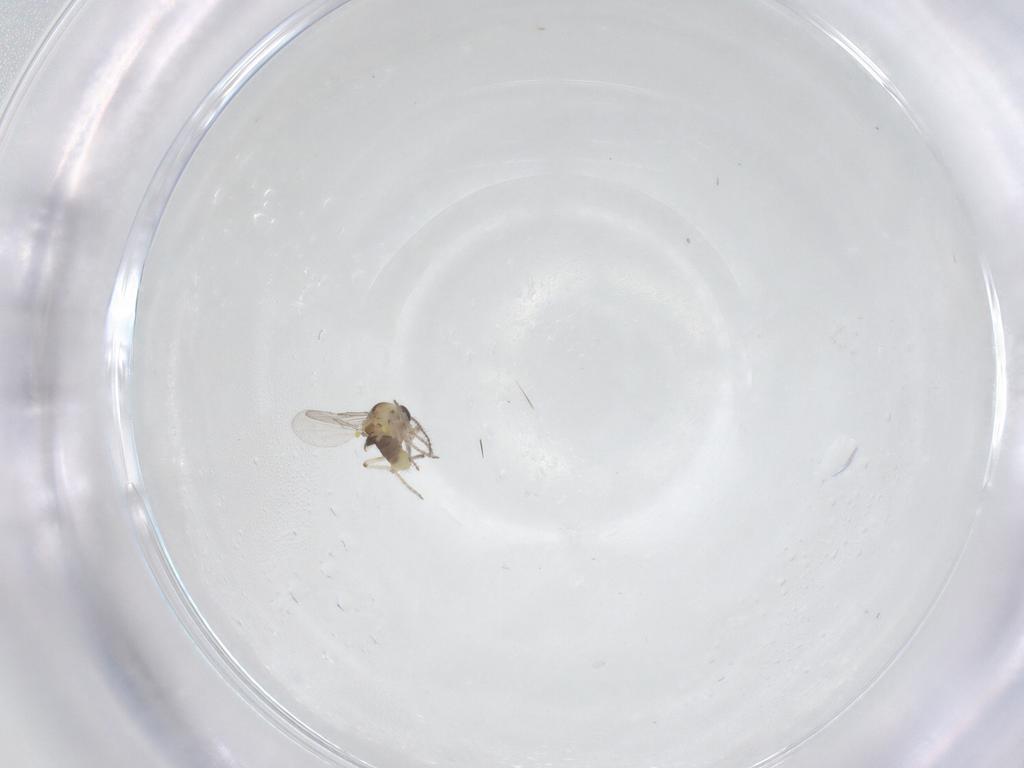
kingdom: Animalia
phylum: Arthropoda
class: Insecta
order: Diptera
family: Ceratopogonidae
